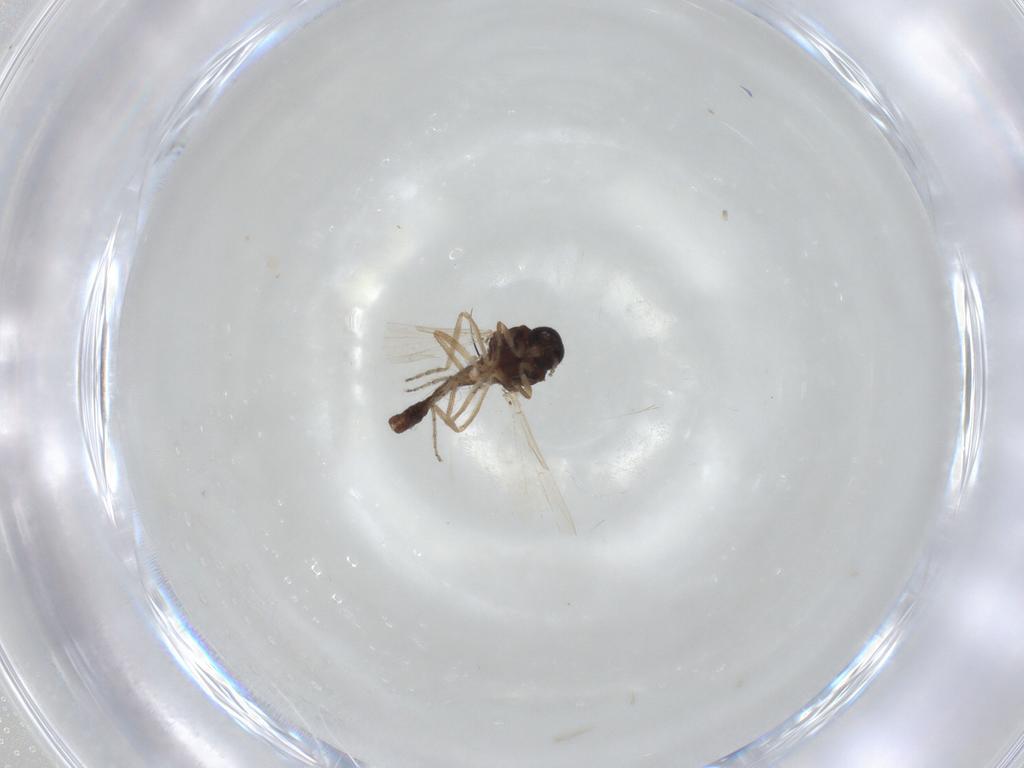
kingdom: Animalia
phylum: Arthropoda
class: Insecta
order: Diptera
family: Ceratopogonidae
